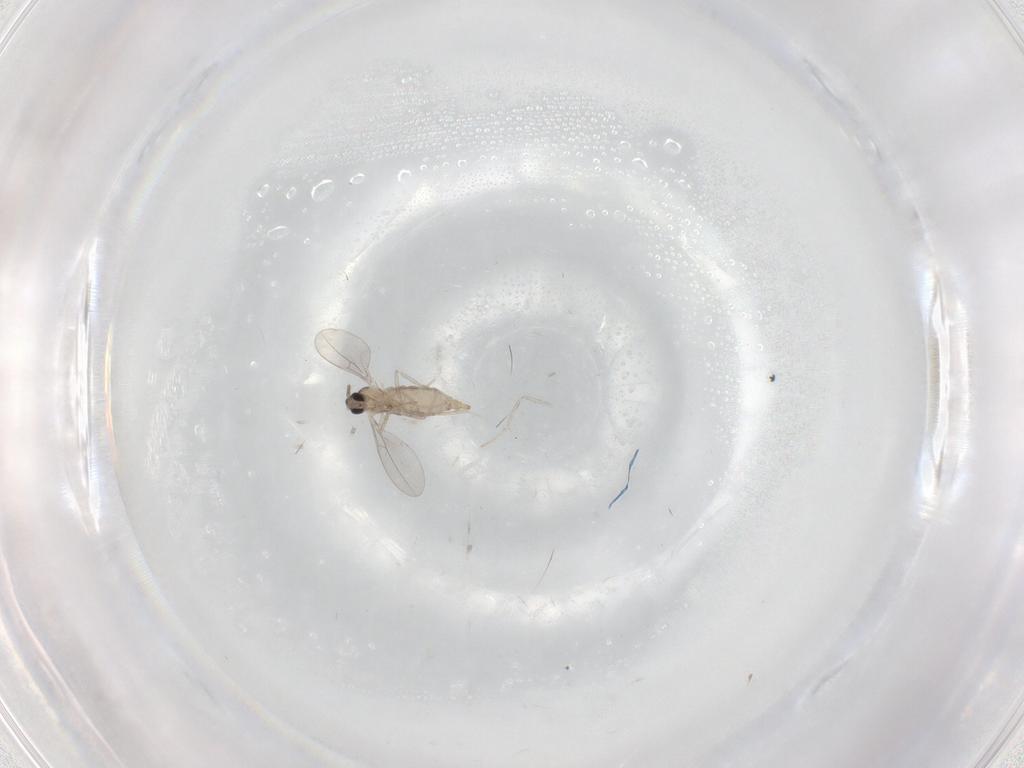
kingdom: Animalia
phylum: Arthropoda
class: Insecta
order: Diptera
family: Cecidomyiidae
